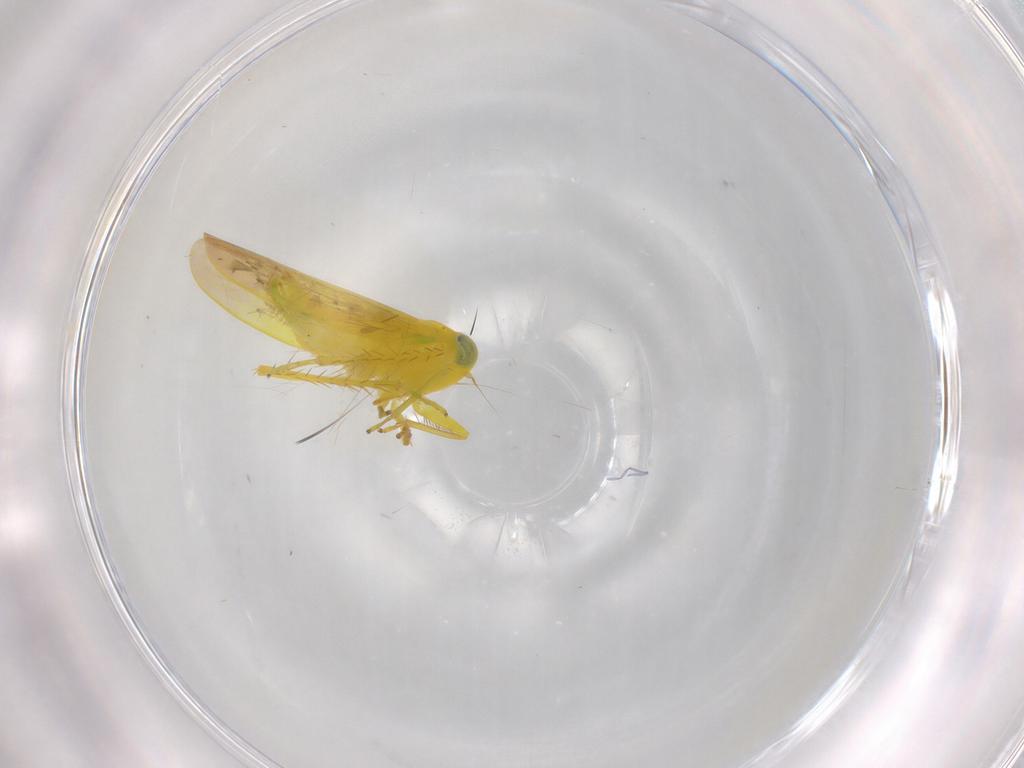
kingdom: Animalia
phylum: Arthropoda
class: Insecta
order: Hemiptera
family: Cicadellidae
